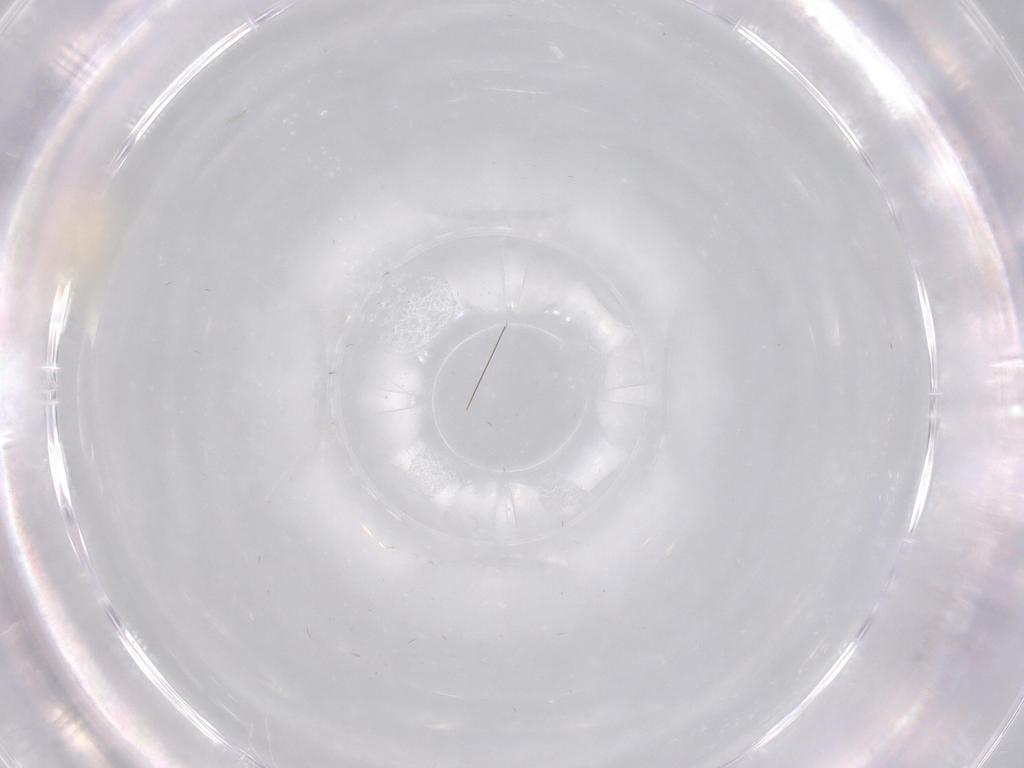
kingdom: Animalia
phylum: Arthropoda
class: Insecta
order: Diptera
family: Cecidomyiidae
